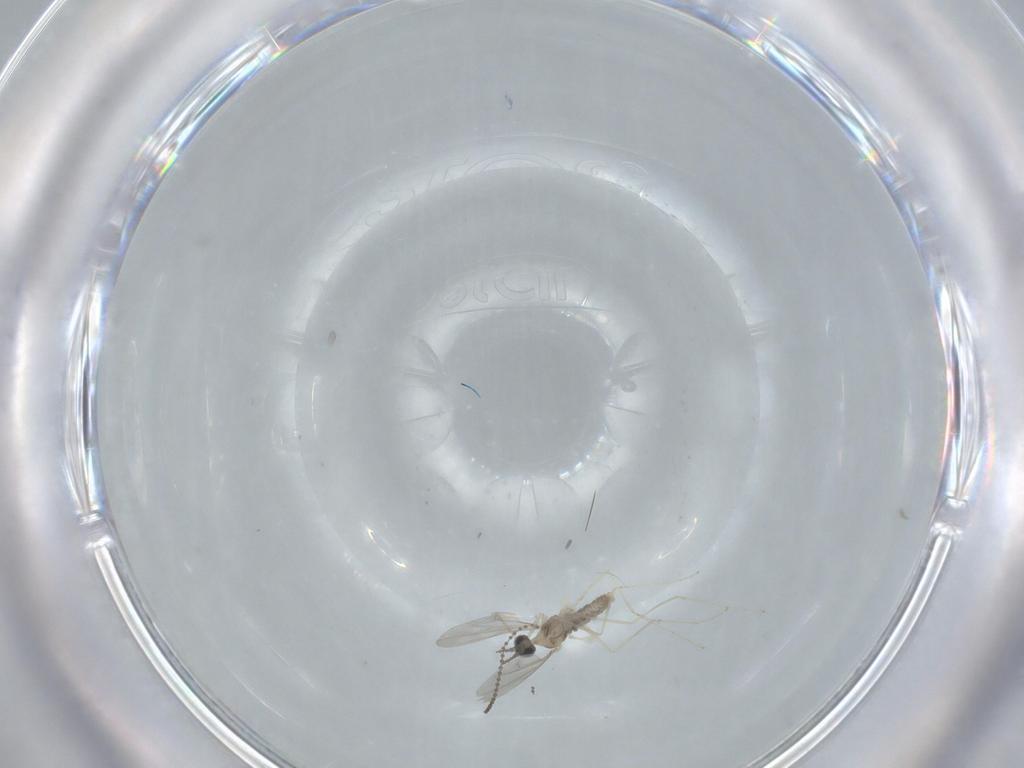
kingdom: Animalia
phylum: Arthropoda
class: Insecta
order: Diptera
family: Cecidomyiidae
